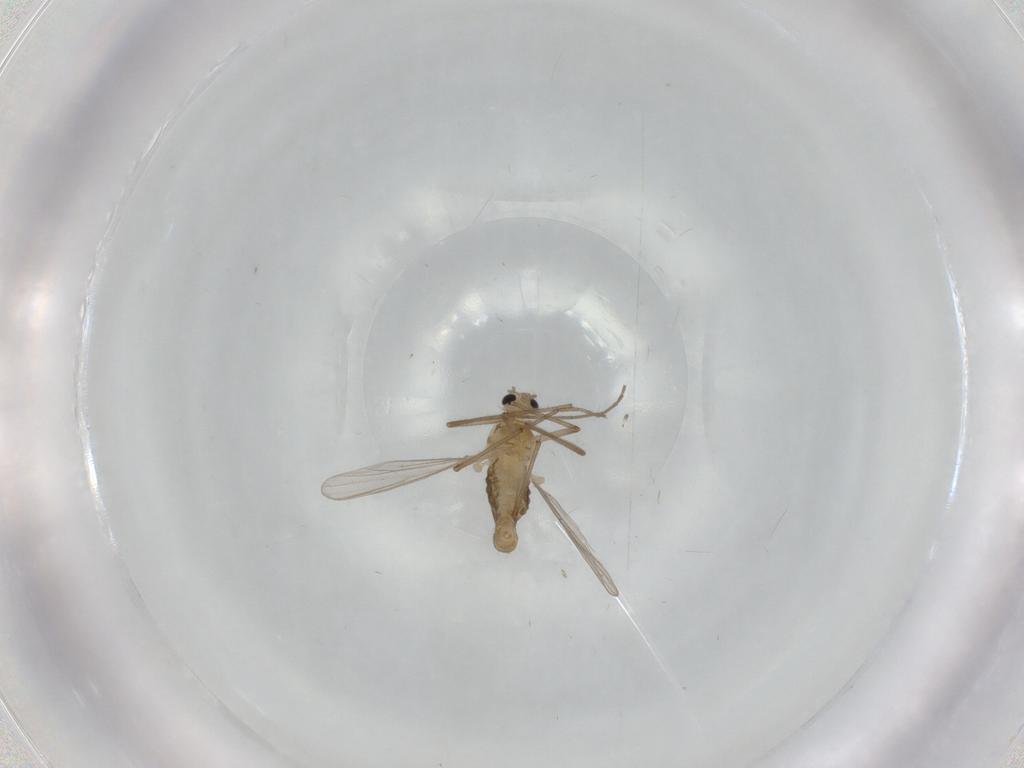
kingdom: Animalia
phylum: Arthropoda
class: Insecta
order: Diptera
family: Chironomidae
